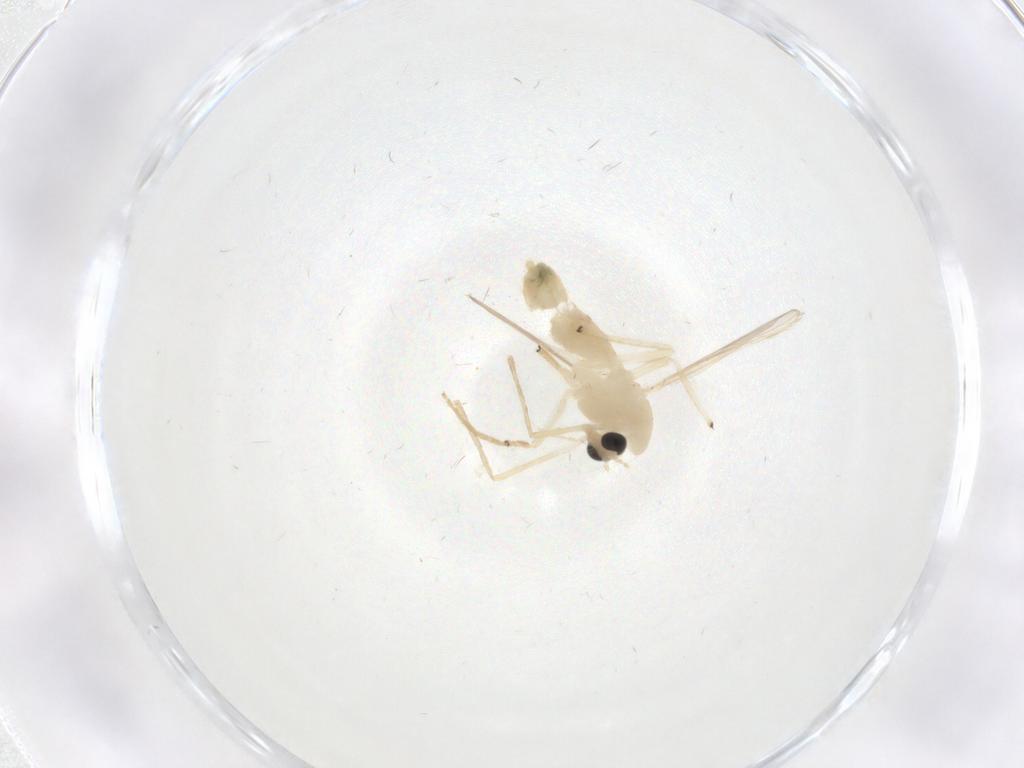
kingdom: Animalia
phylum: Arthropoda
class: Insecta
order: Diptera
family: Chironomidae
